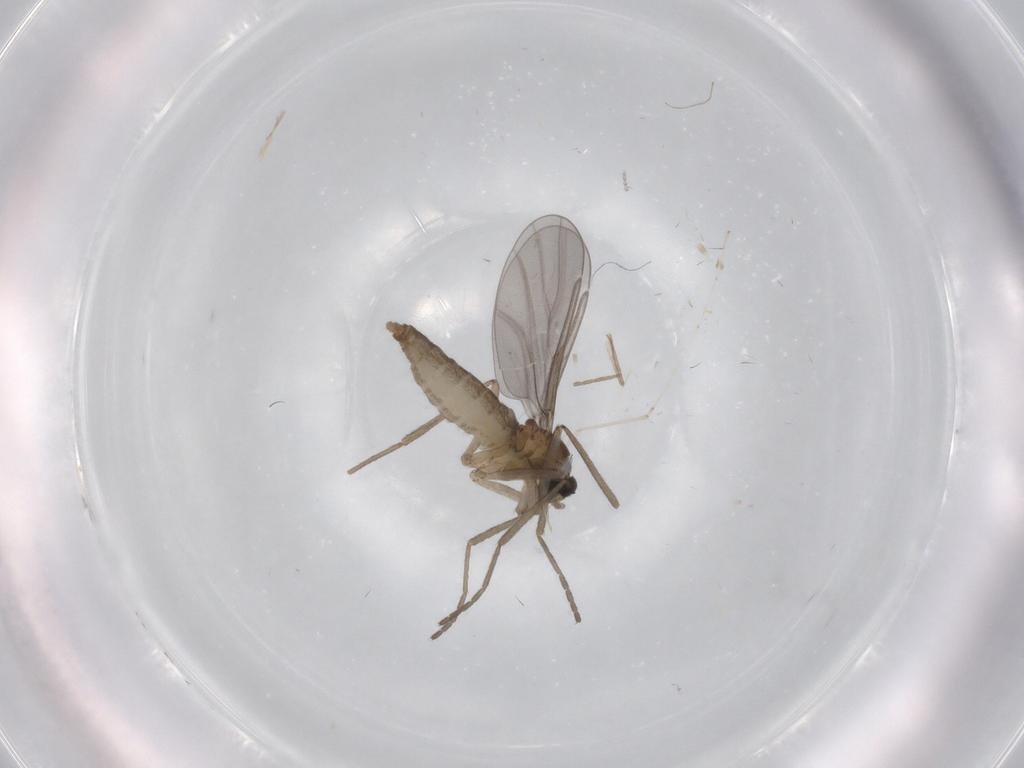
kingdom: Animalia
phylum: Arthropoda
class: Insecta
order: Diptera
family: Cecidomyiidae
